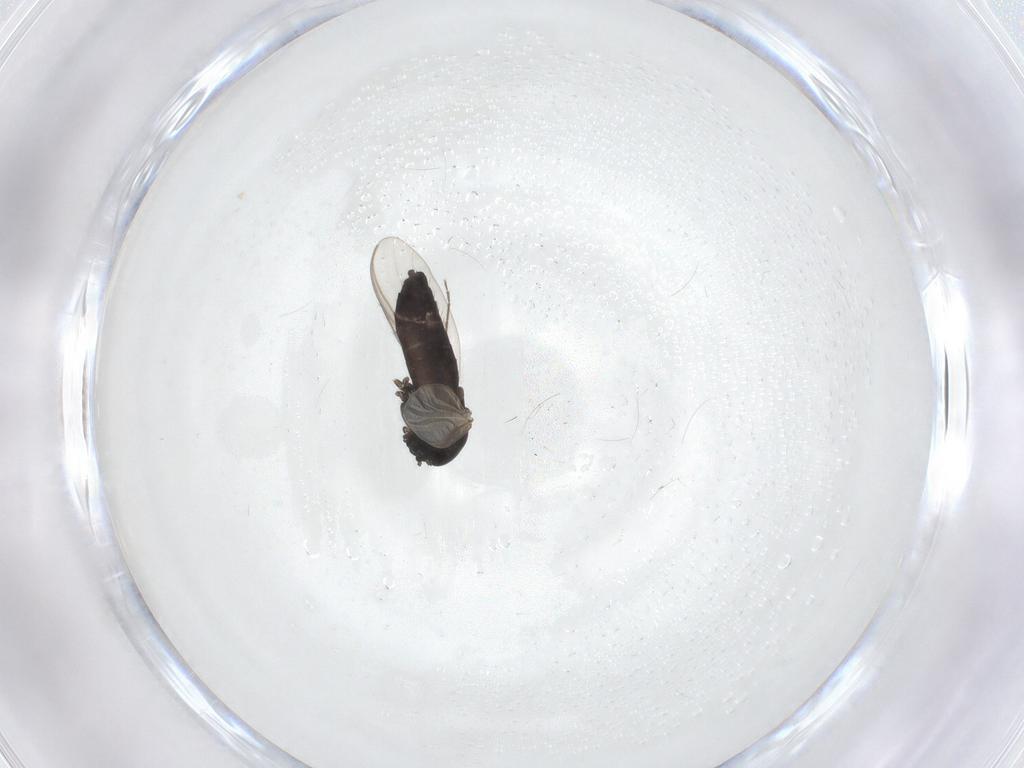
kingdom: Animalia
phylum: Arthropoda
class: Insecta
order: Diptera
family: Chironomidae
